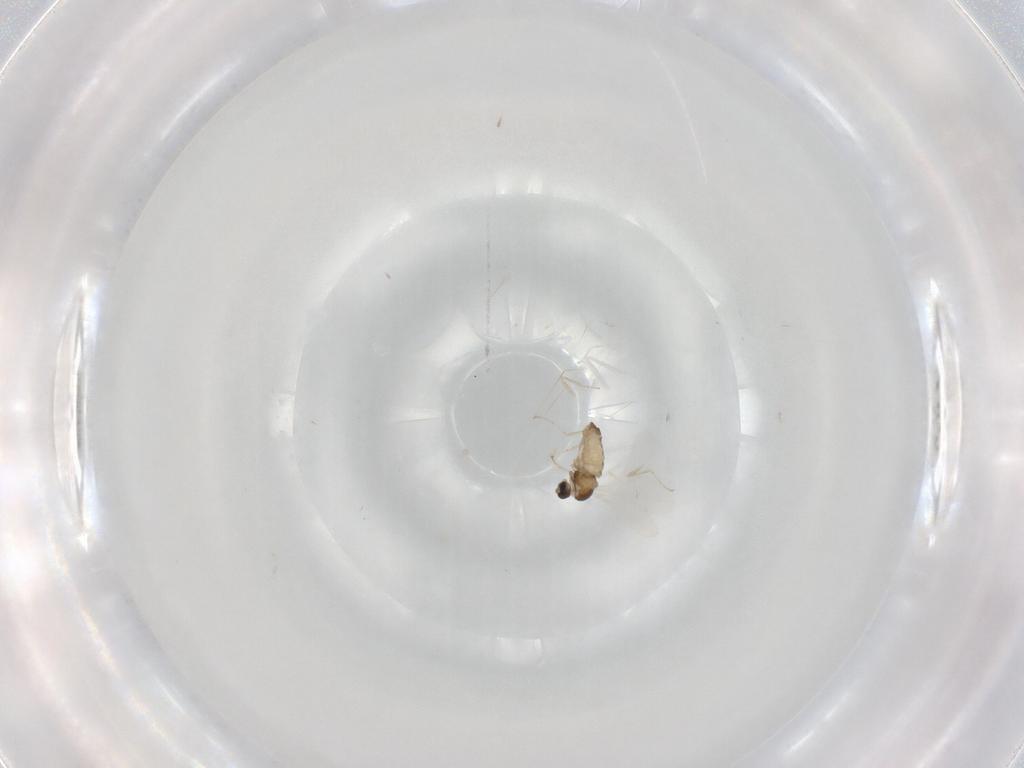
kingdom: Animalia
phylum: Arthropoda
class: Insecta
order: Diptera
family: Cecidomyiidae
